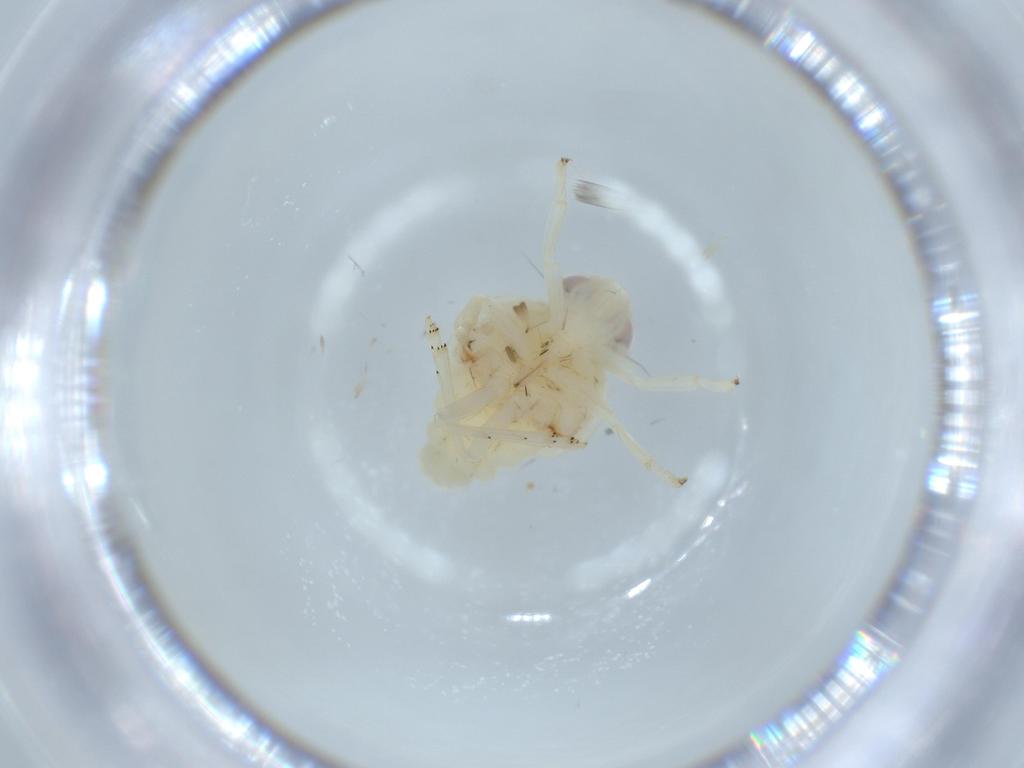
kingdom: Animalia
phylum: Arthropoda
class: Insecta
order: Hemiptera
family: Nogodinidae
